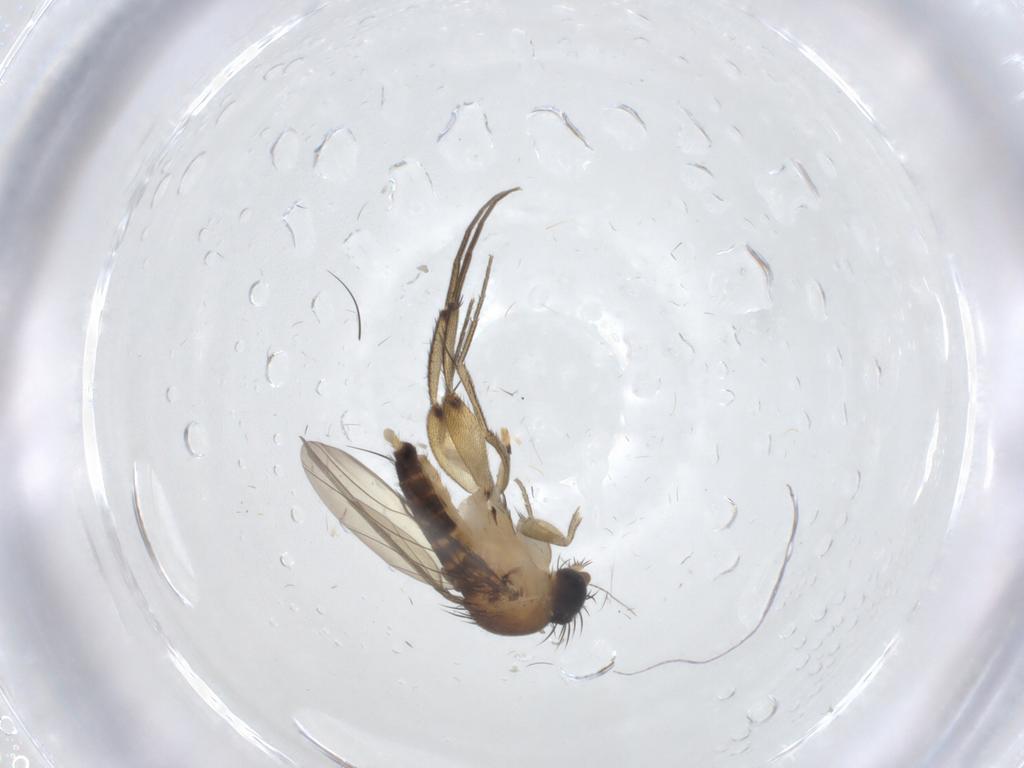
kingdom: Animalia
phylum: Arthropoda
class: Insecta
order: Diptera
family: Phoridae
